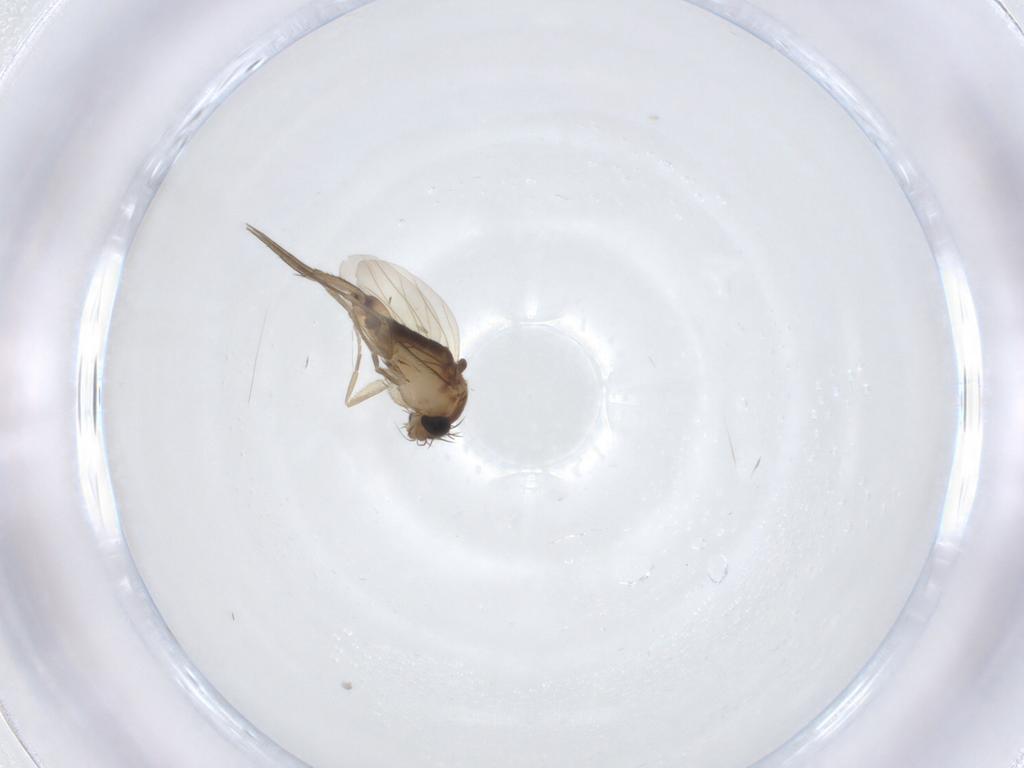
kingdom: Animalia
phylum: Arthropoda
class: Insecta
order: Diptera
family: Phoridae
